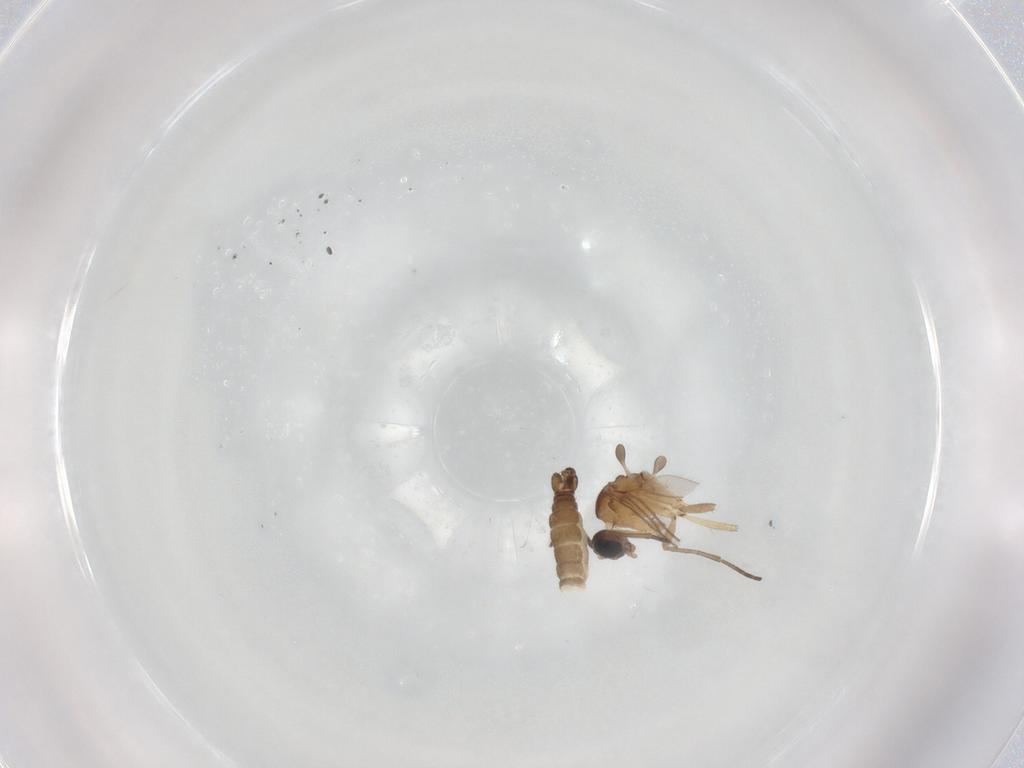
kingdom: Animalia
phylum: Arthropoda
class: Insecta
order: Diptera
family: Sciaridae
